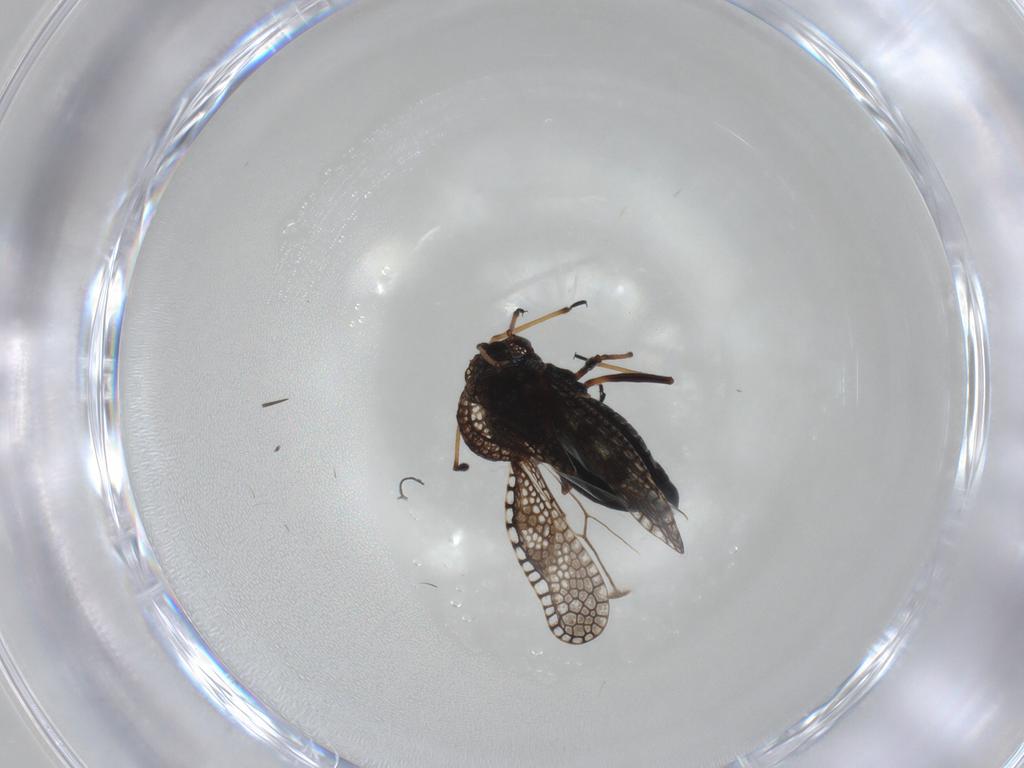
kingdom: Animalia
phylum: Arthropoda
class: Insecta
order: Hemiptera
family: Tingidae
